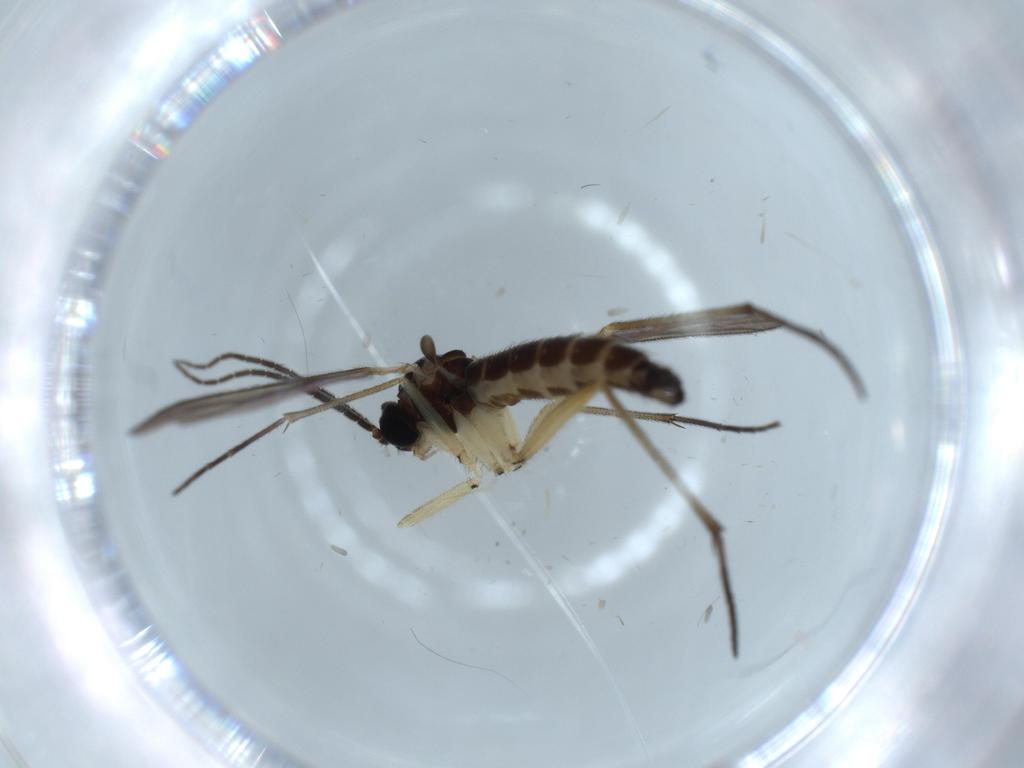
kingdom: Animalia
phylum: Arthropoda
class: Insecta
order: Diptera
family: Sciaridae
